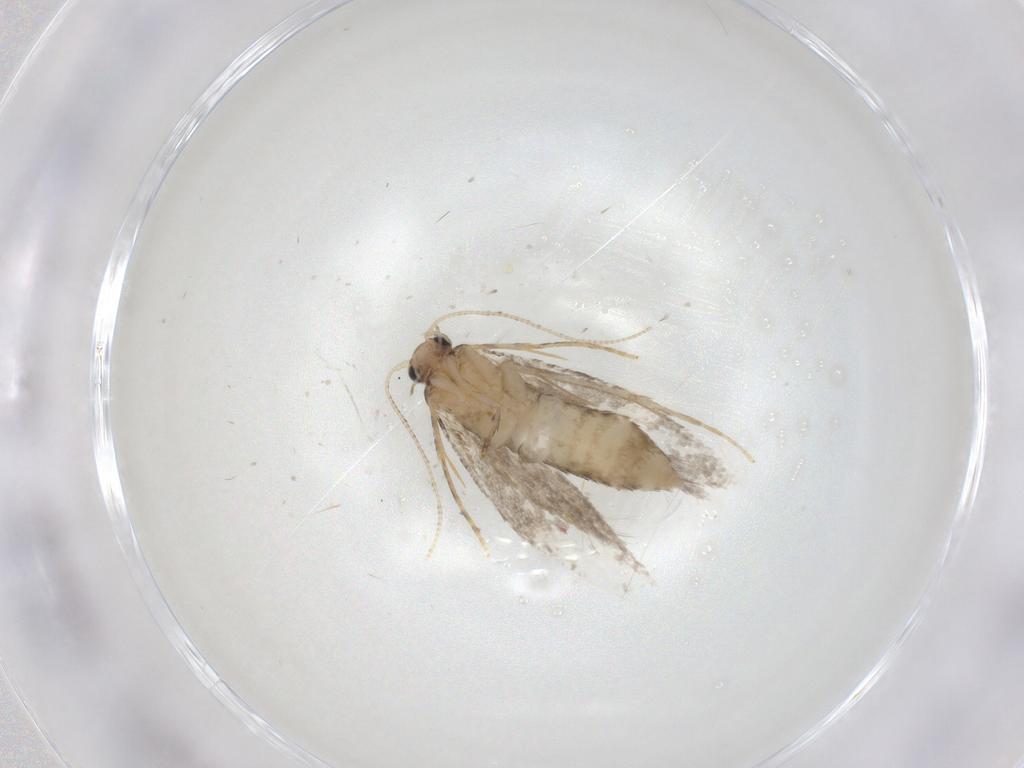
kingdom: Animalia
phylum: Arthropoda
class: Insecta
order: Lepidoptera
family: Tineidae
